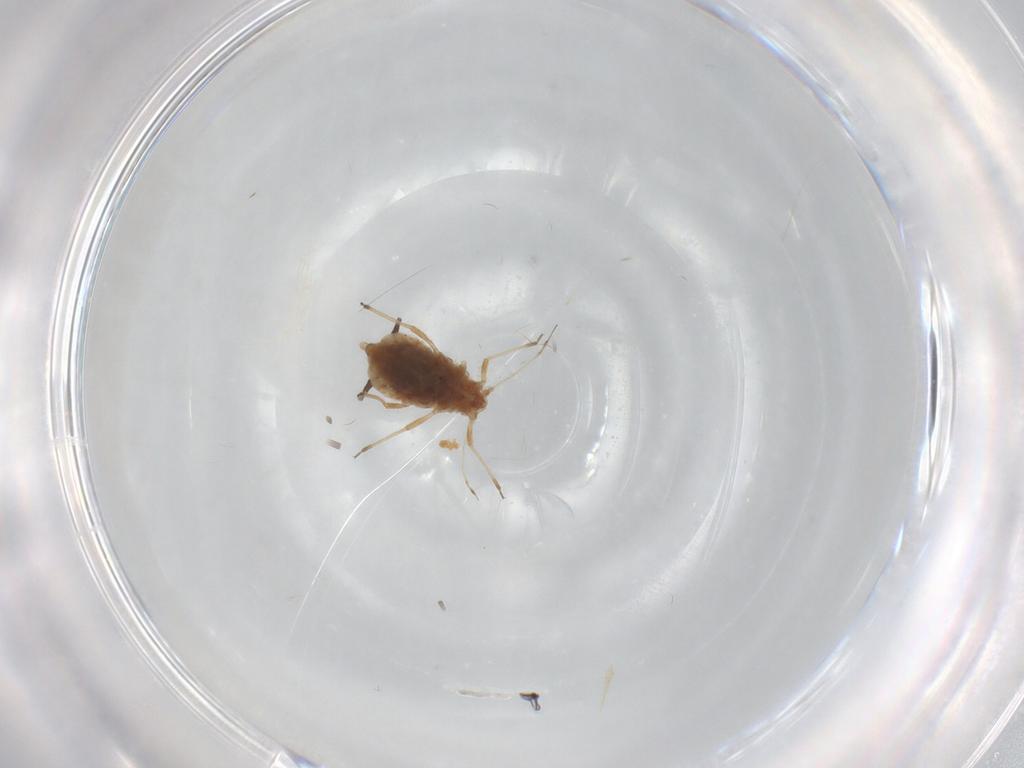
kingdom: Animalia
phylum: Arthropoda
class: Insecta
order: Hemiptera
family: Aphididae
